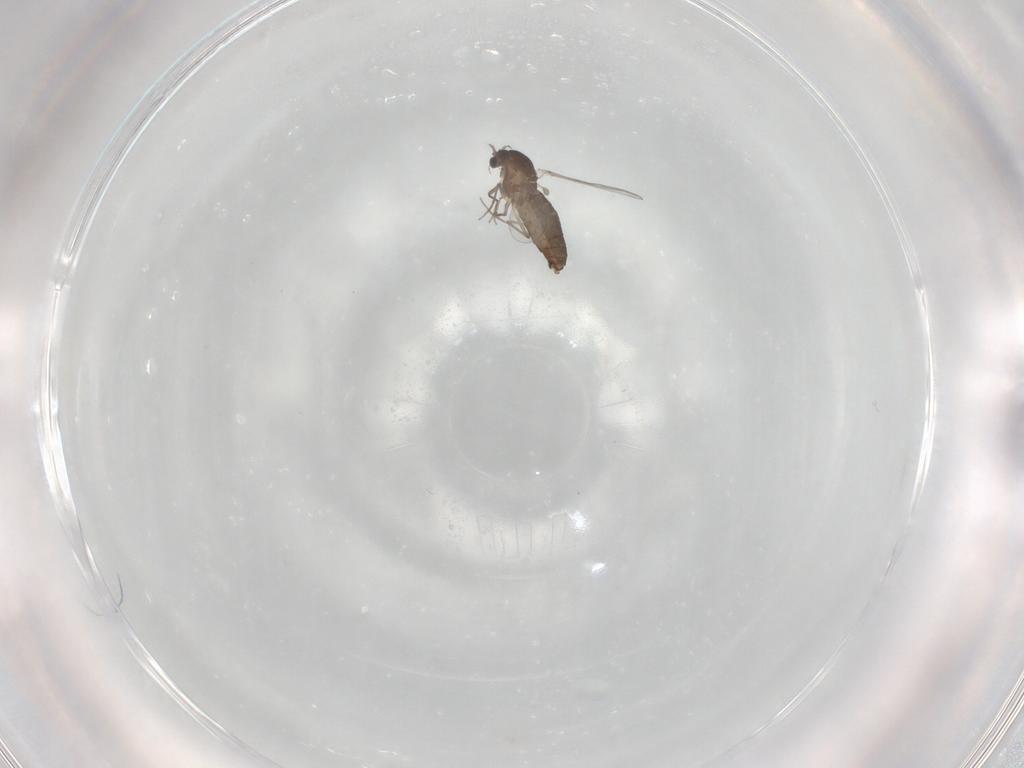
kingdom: Animalia
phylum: Arthropoda
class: Insecta
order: Diptera
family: Chironomidae
